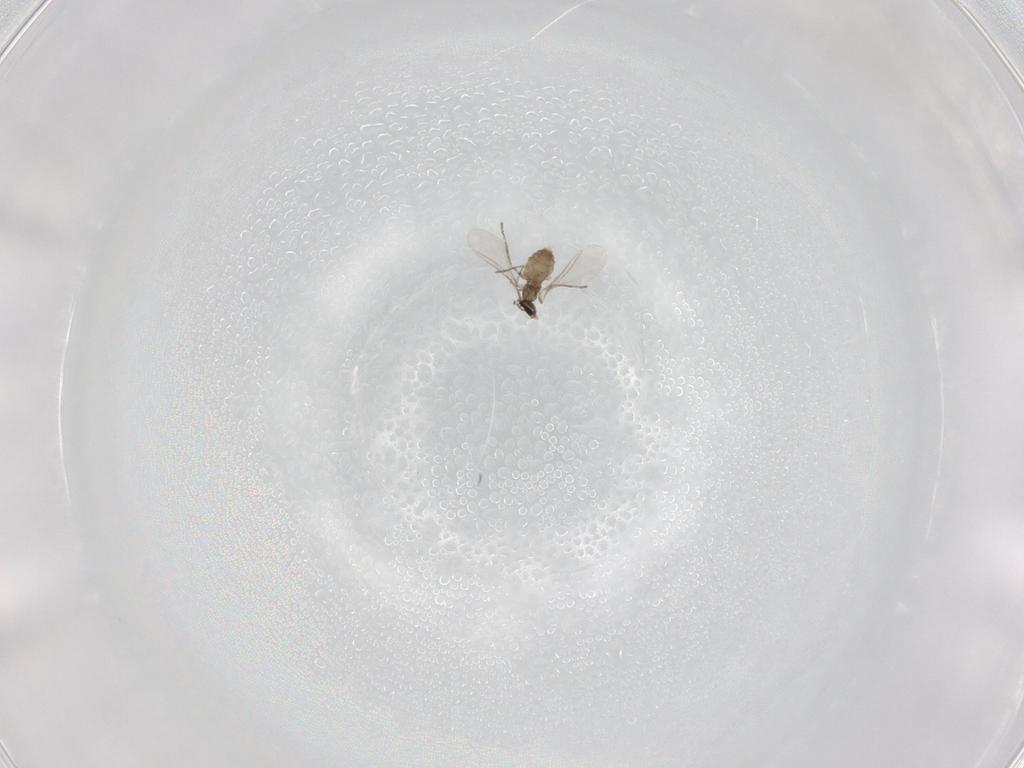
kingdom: Animalia
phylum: Arthropoda
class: Insecta
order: Diptera
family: Cecidomyiidae
